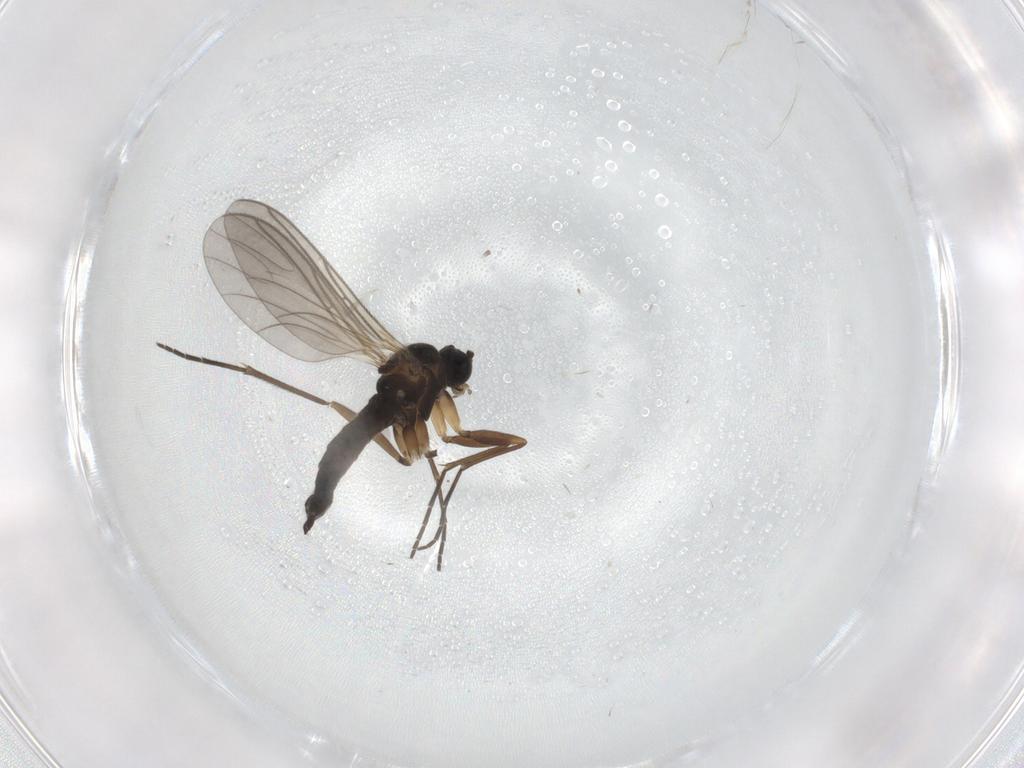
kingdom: Animalia
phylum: Arthropoda
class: Insecta
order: Diptera
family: Sciaridae
